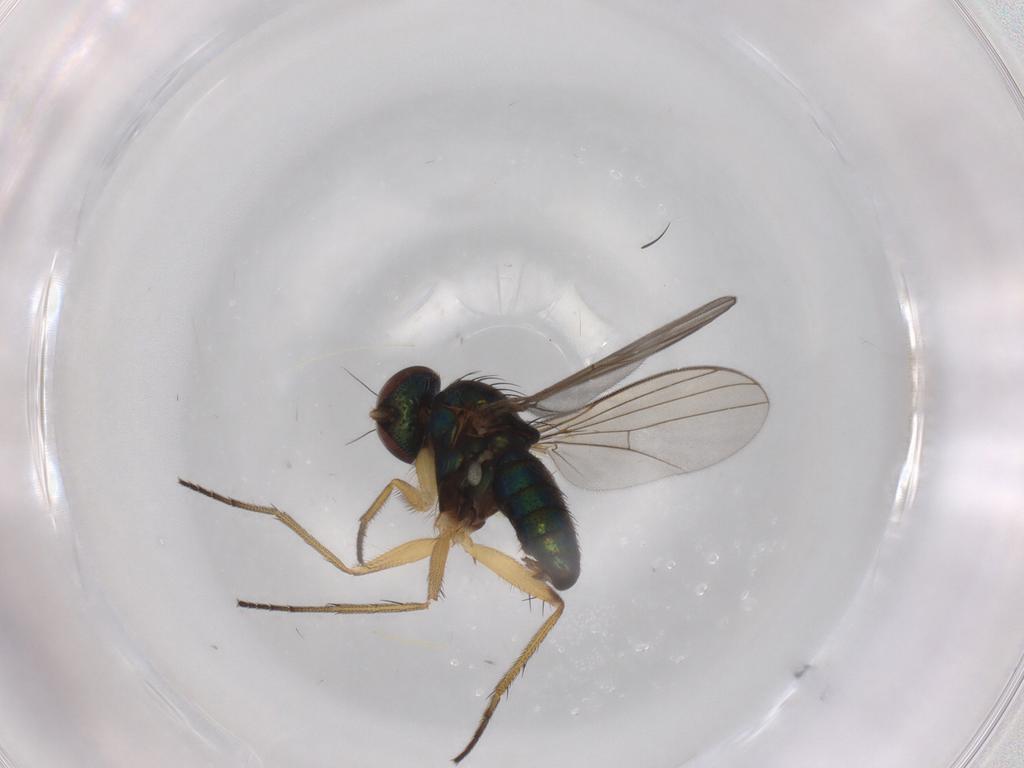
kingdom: Animalia
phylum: Arthropoda
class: Insecta
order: Diptera
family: Dolichopodidae
